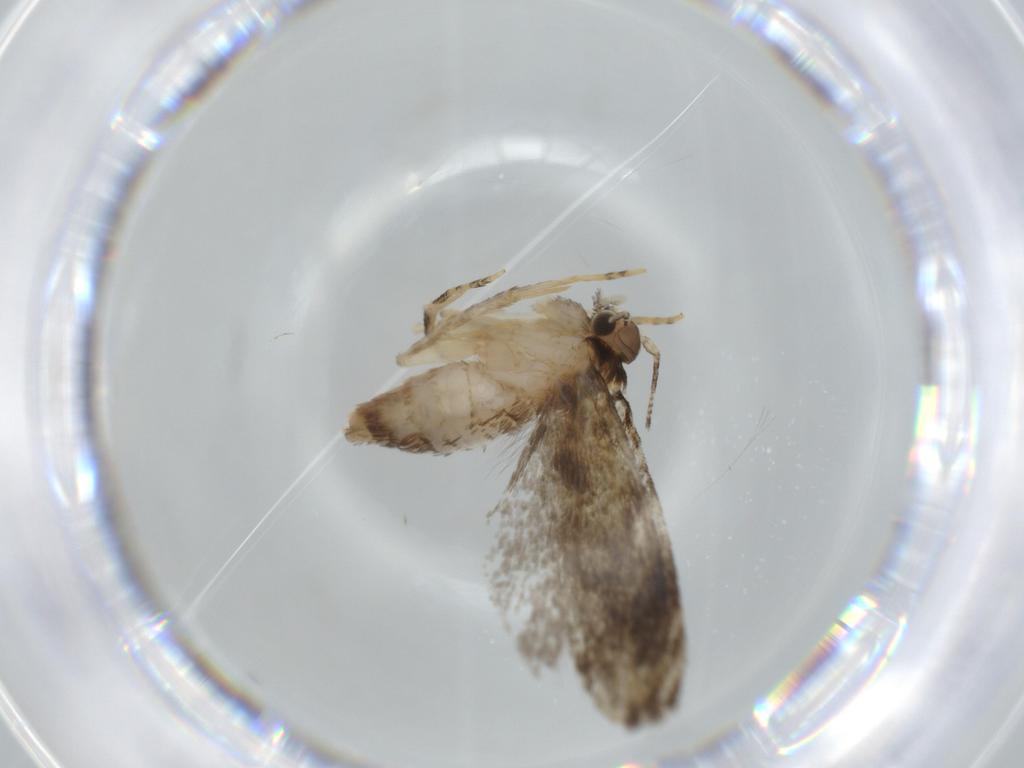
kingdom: Animalia
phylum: Arthropoda
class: Insecta
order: Lepidoptera
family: Tineidae
